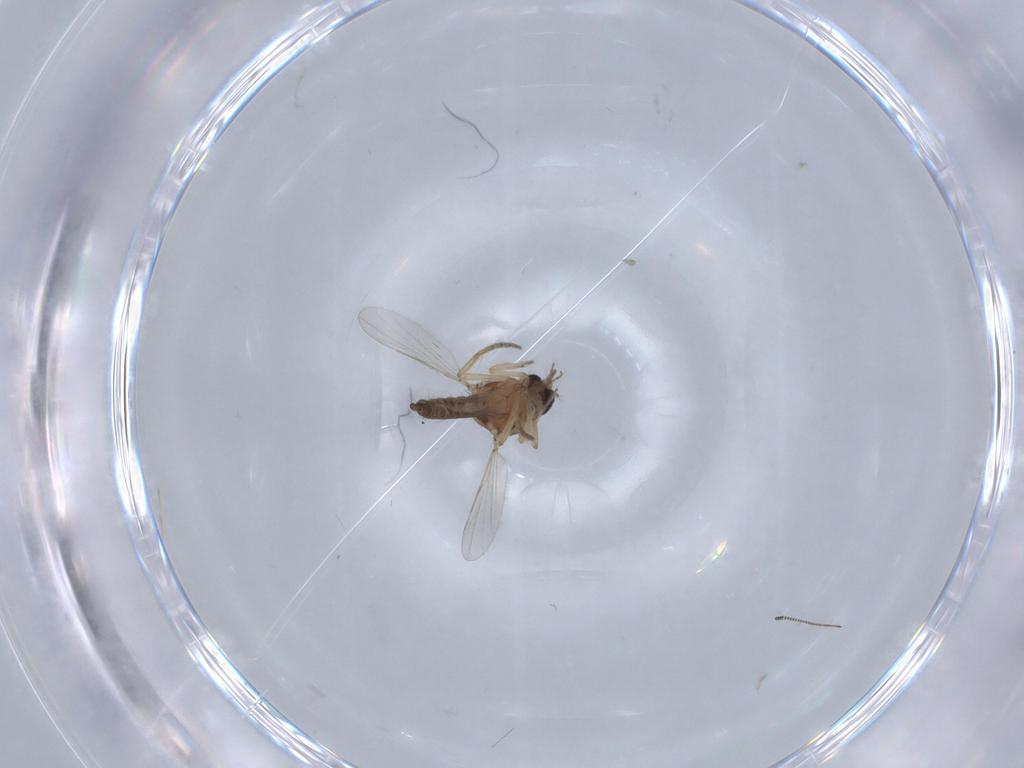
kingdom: Animalia
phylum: Arthropoda
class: Insecta
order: Diptera
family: Ceratopogonidae
